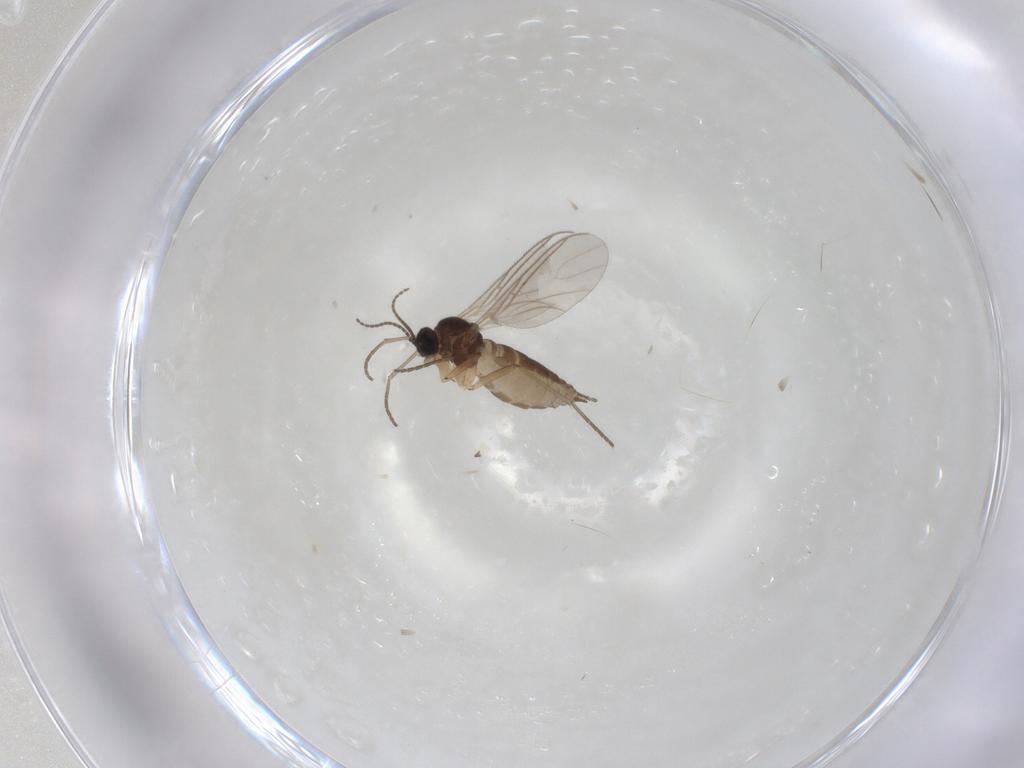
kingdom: Animalia
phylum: Arthropoda
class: Insecta
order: Diptera
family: Sciaridae
